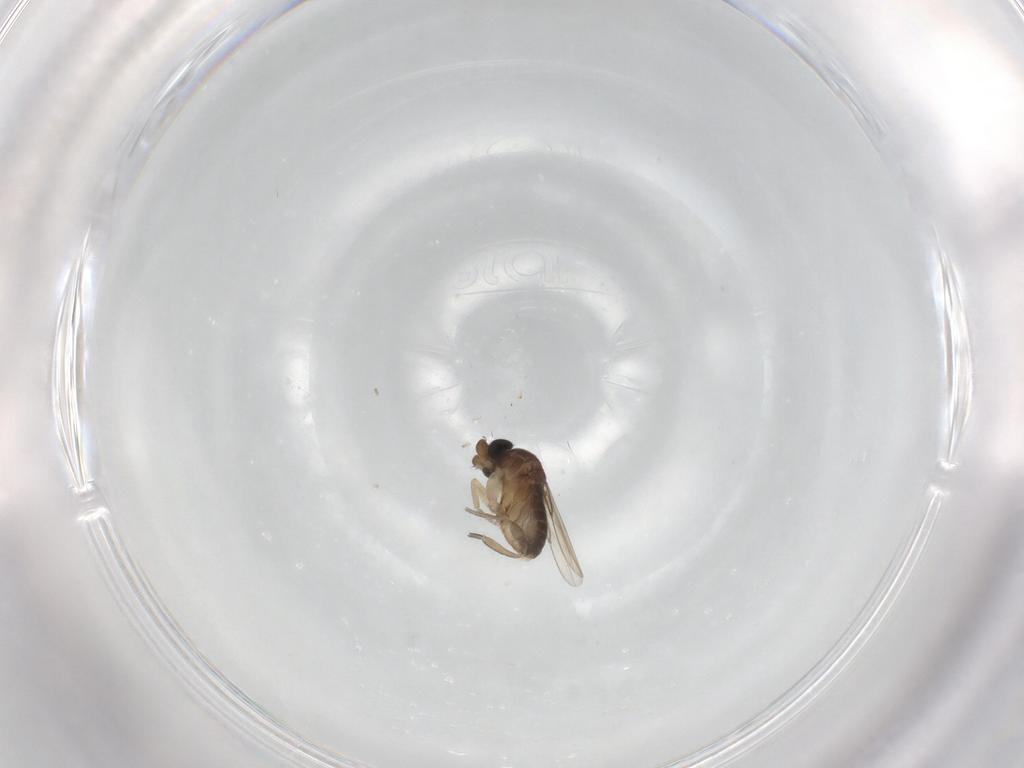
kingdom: Animalia
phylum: Arthropoda
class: Insecta
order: Diptera
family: Phoridae
